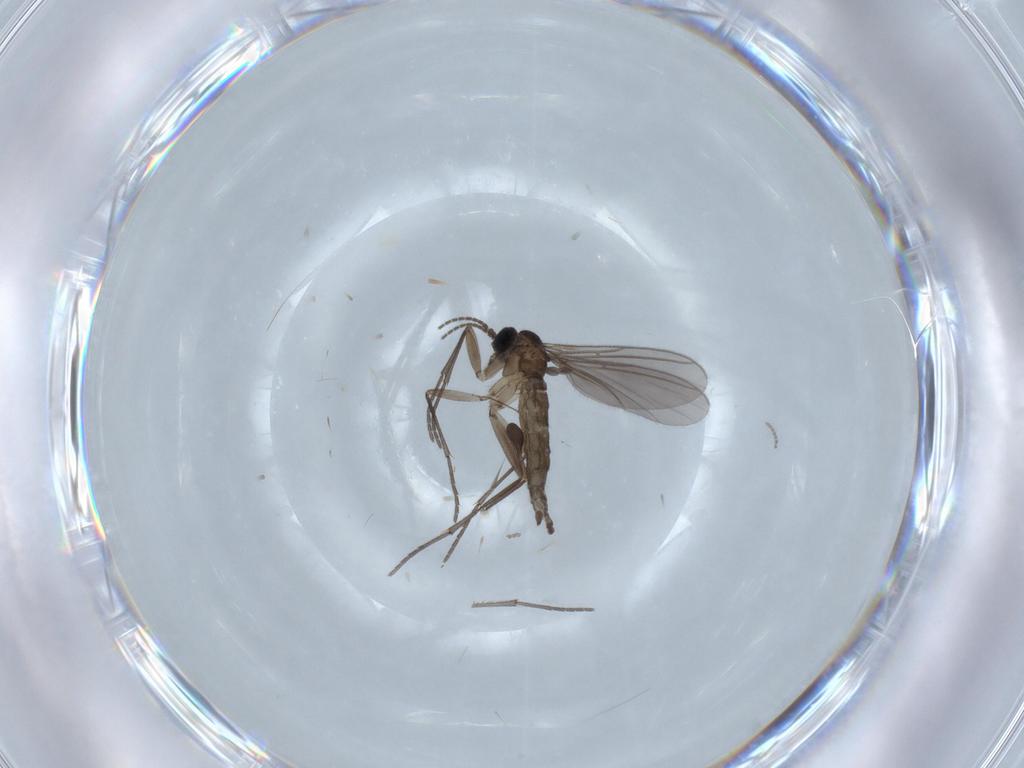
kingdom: Animalia
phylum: Arthropoda
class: Insecta
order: Diptera
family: Sciaridae
